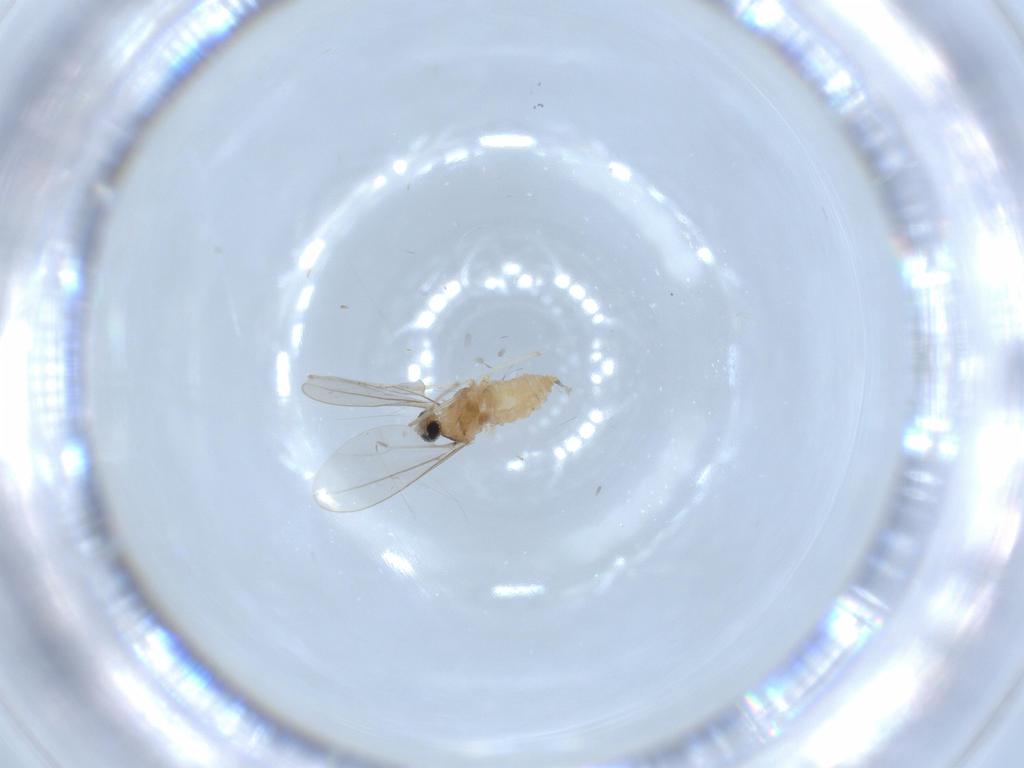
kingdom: Animalia
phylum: Arthropoda
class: Insecta
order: Diptera
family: Cecidomyiidae
